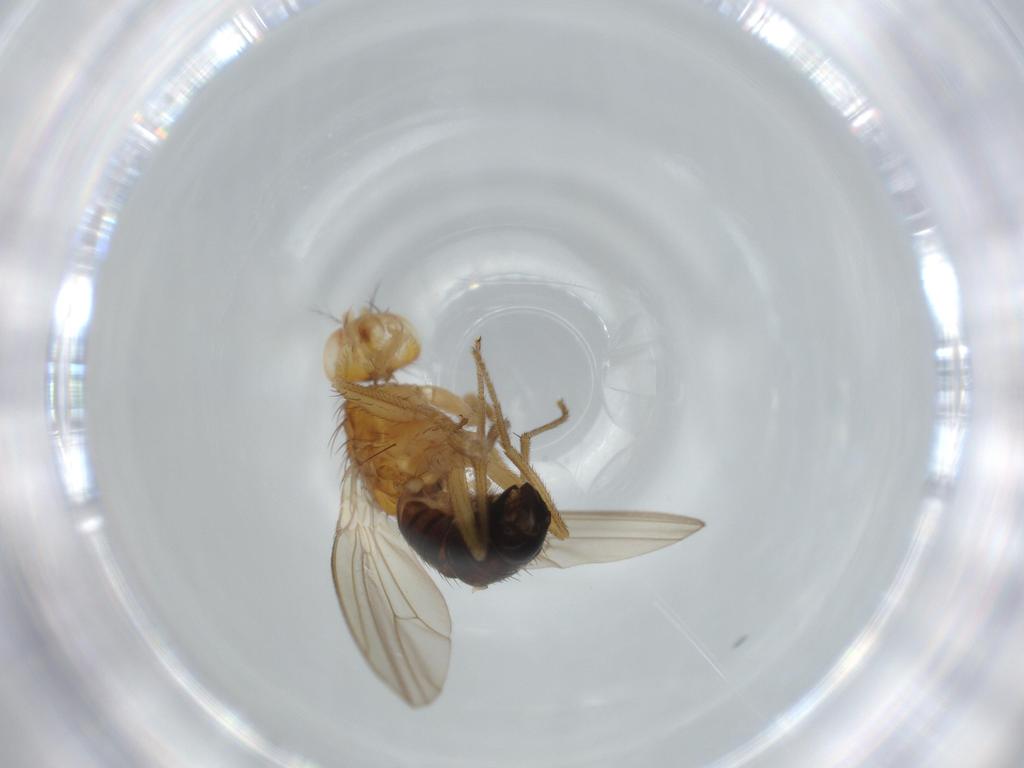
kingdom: Animalia
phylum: Arthropoda
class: Insecta
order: Diptera
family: Drosophilidae
